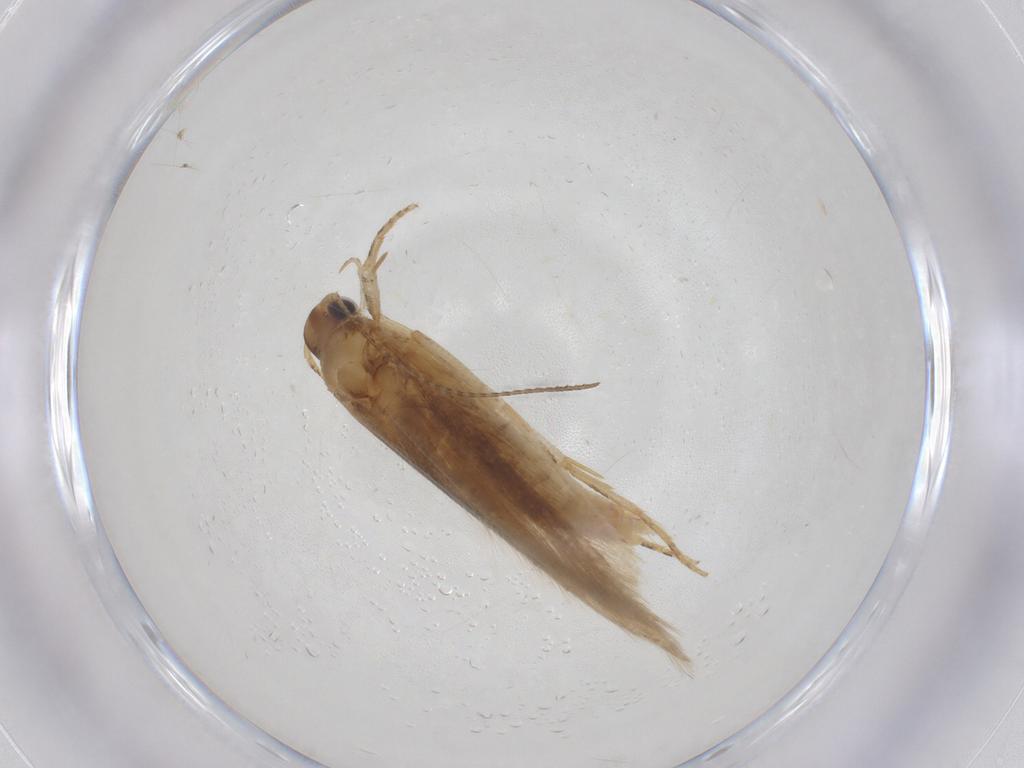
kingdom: Animalia
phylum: Arthropoda
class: Insecta
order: Lepidoptera
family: Gelechiidae
